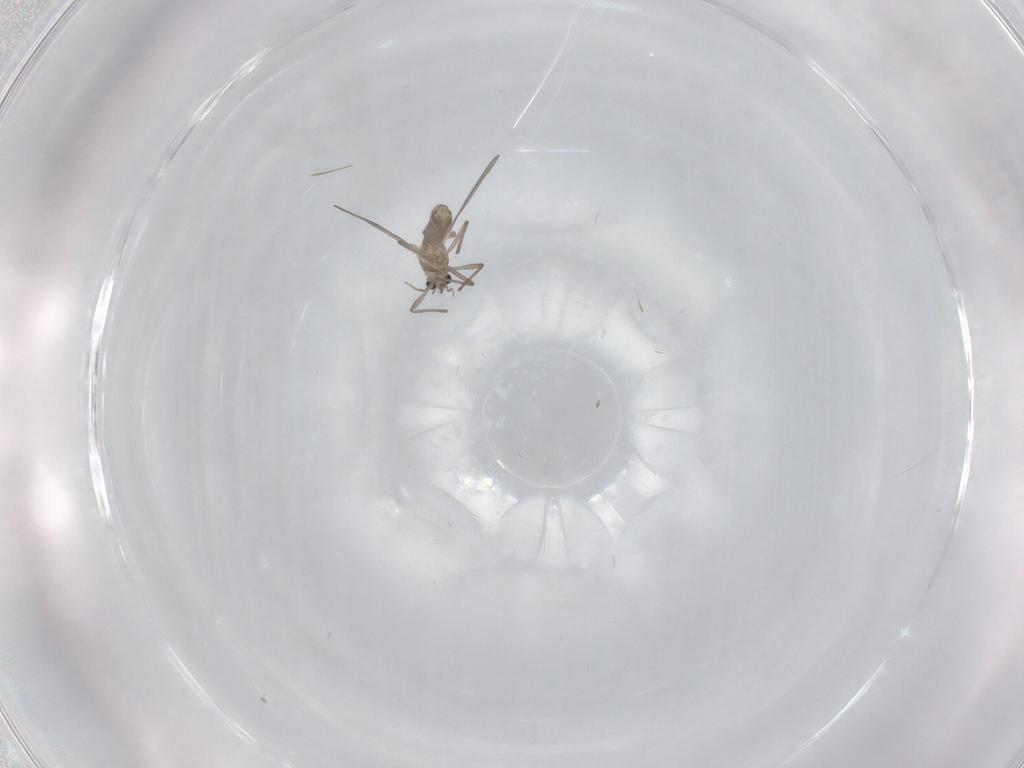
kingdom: Animalia
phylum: Arthropoda
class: Insecta
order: Diptera
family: Chironomidae
